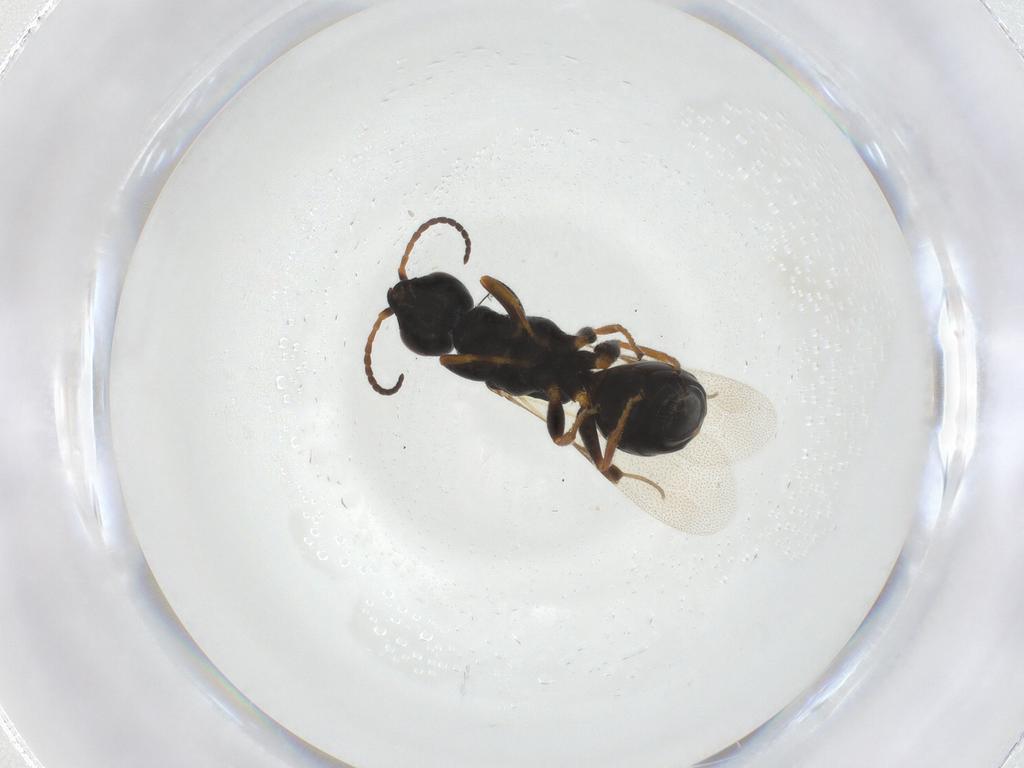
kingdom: Animalia
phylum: Arthropoda
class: Insecta
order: Hymenoptera
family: Bethylidae
